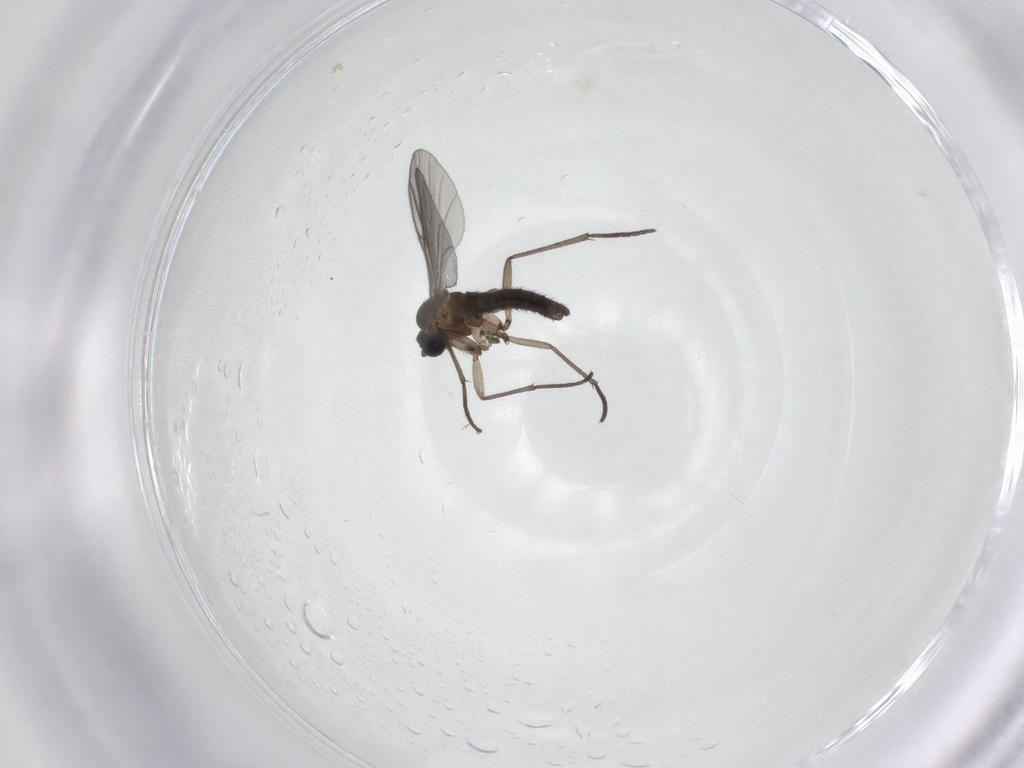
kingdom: Animalia
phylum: Arthropoda
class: Insecta
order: Diptera
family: Sciaridae
